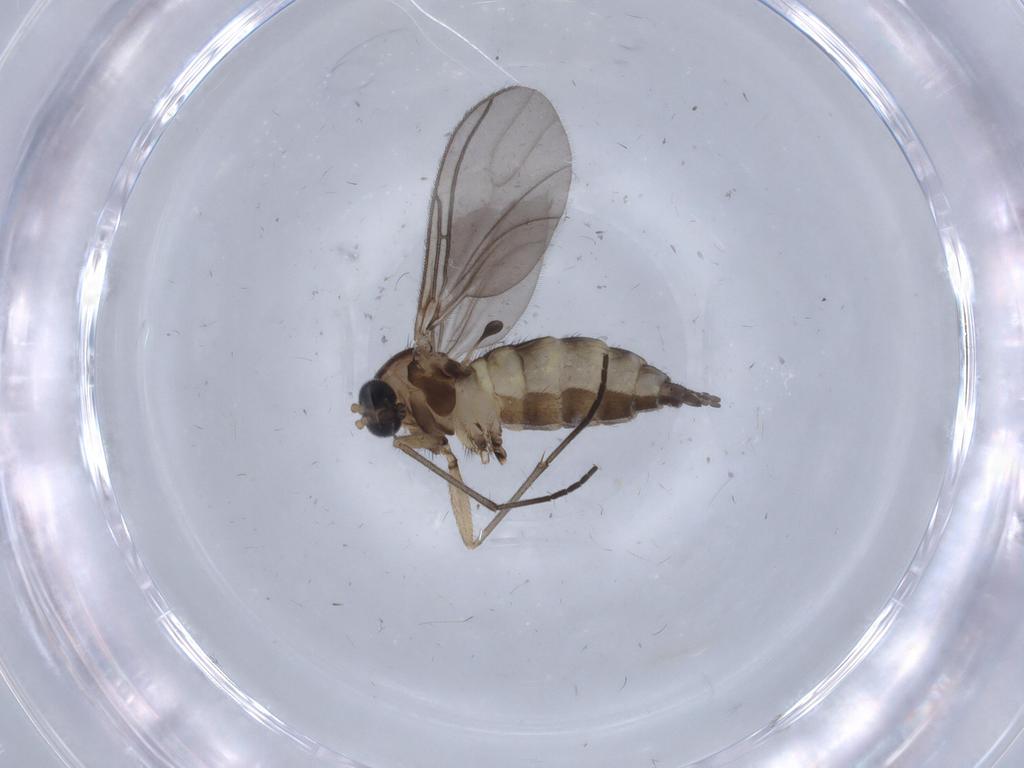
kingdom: Animalia
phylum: Arthropoda
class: Insecta
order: Diptera
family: Sciaridae
